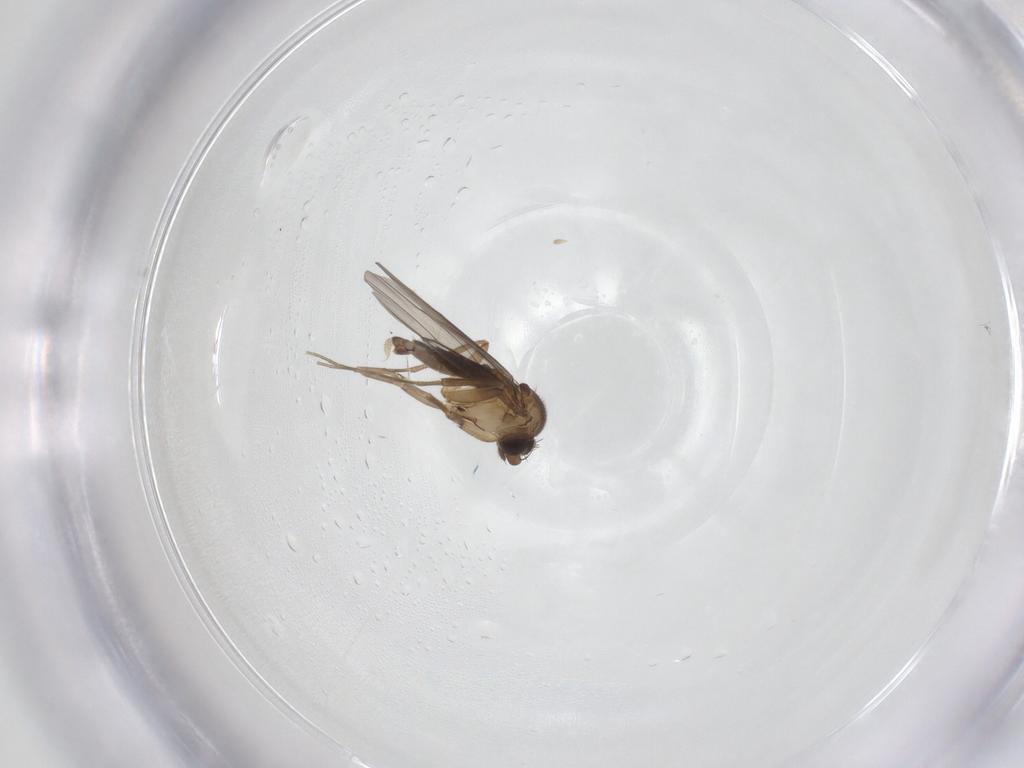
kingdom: Animalia
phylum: Arthropoda
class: Insecta
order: Diptera
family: Phoridae
